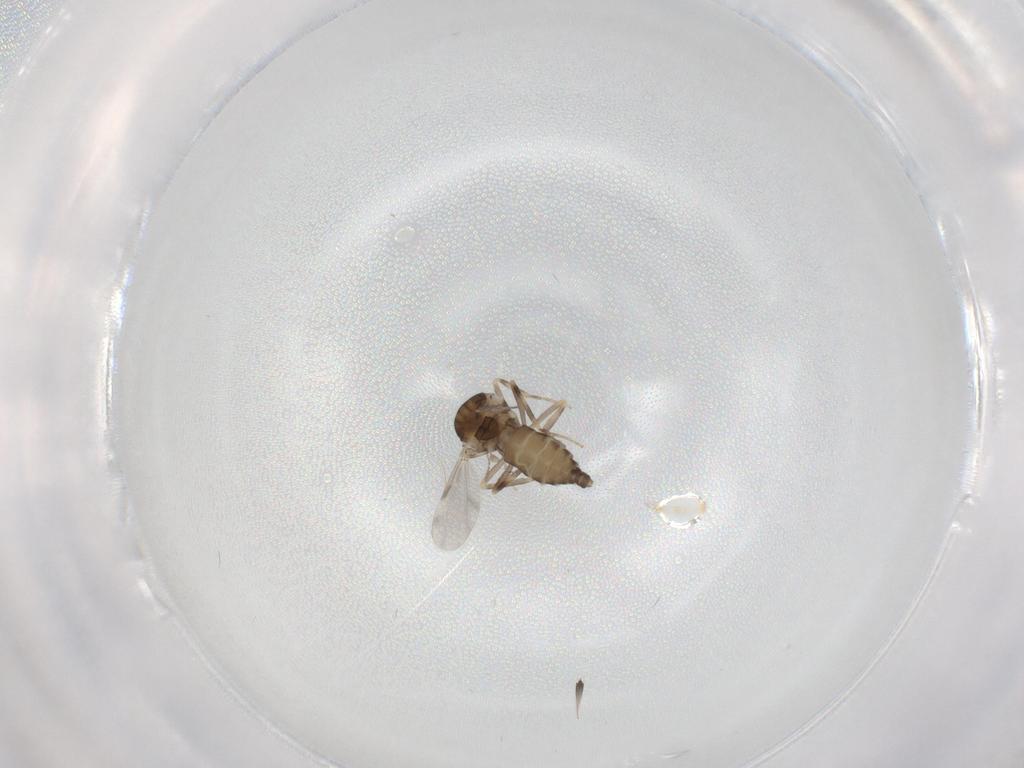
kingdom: Animalia
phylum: Arthropoda
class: Insecta
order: Diptera
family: Ceratopogonidae
